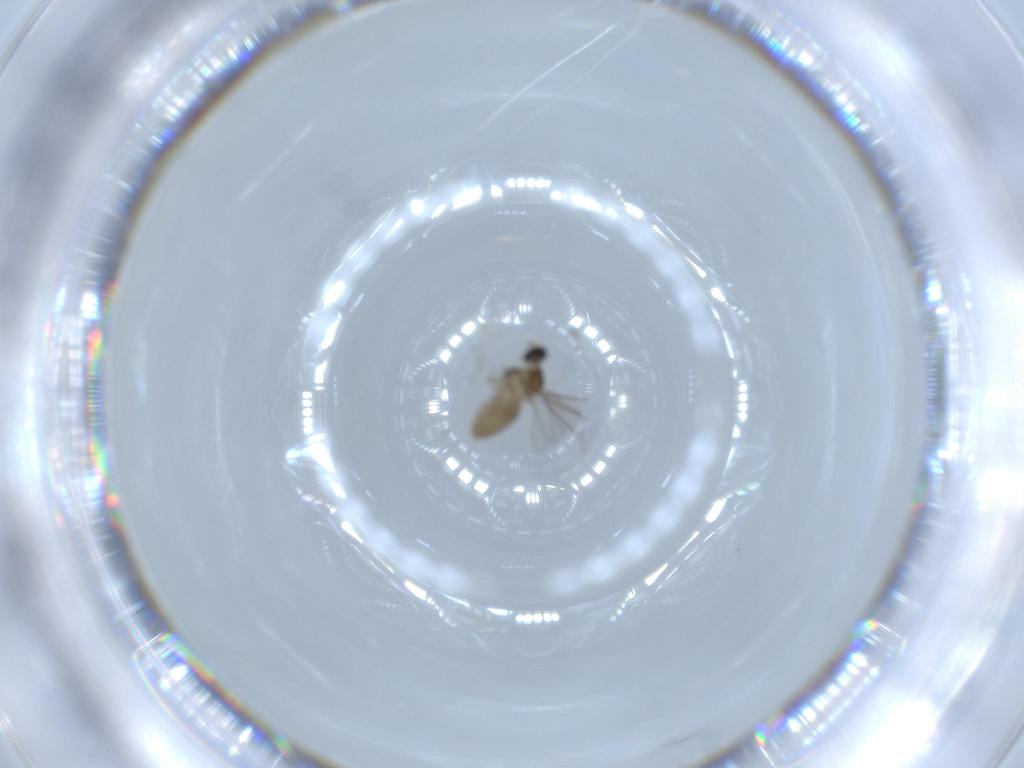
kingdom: Animalia
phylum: Arthropoda
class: Insecta
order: Diptera
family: Cecidomyiidae
